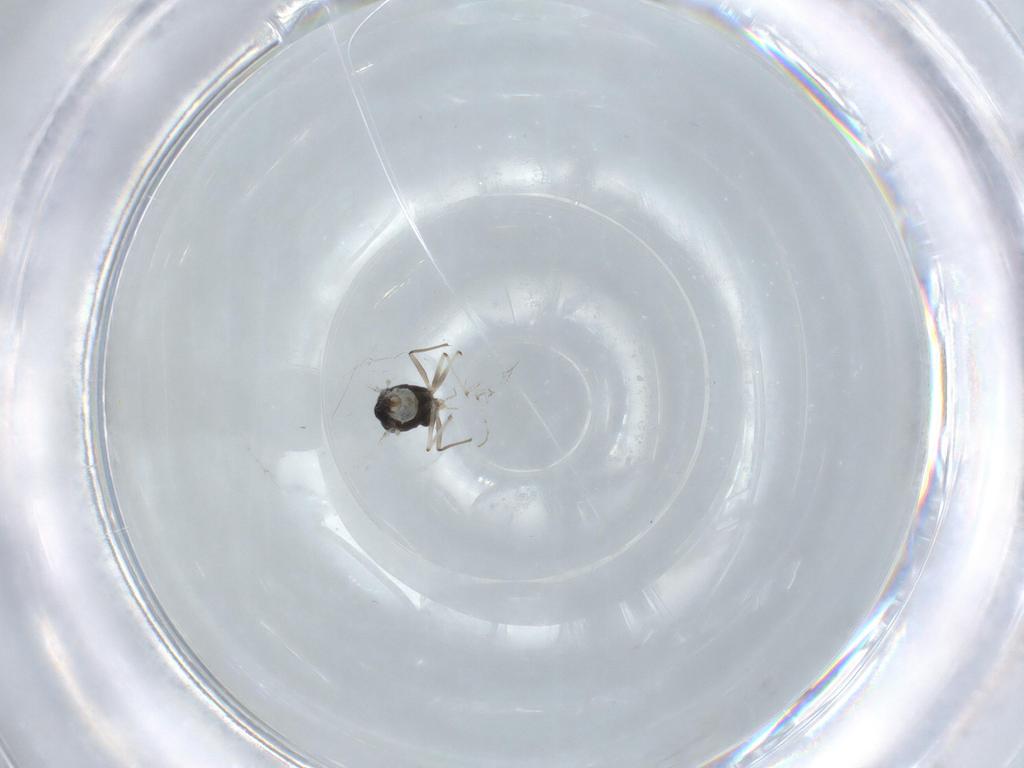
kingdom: Animalia
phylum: Arthropoda
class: Insecta
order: Diptera
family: Chironomidae
